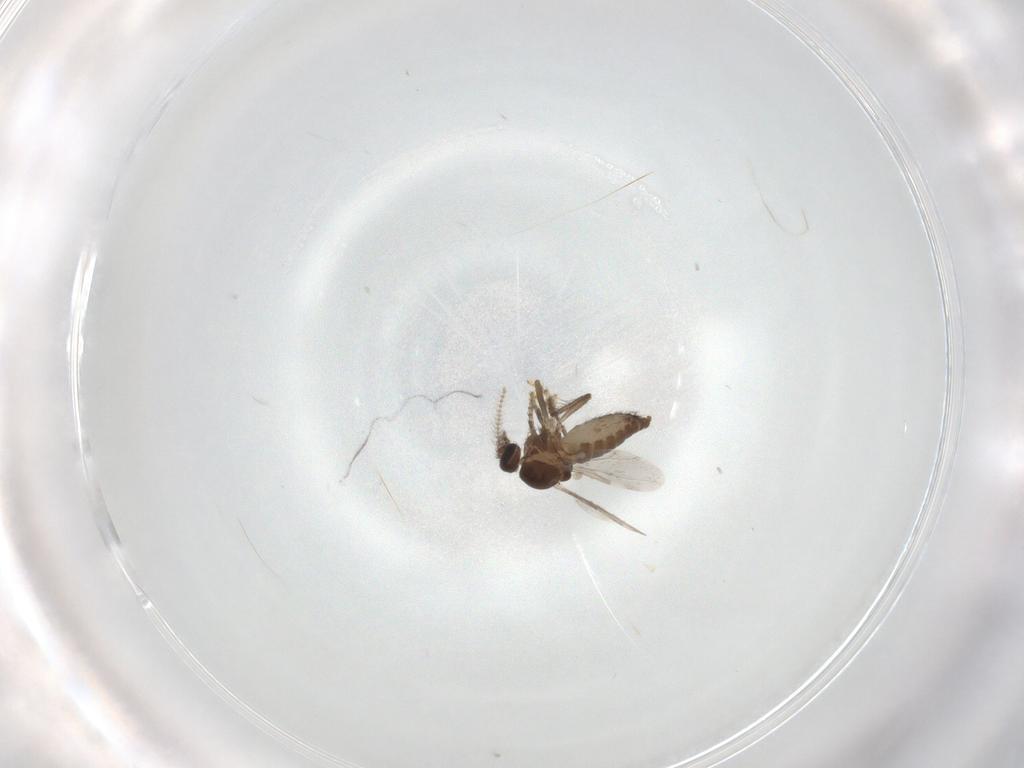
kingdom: Animalia
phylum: Arthropoda
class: Insecta
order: Diptera
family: Ceratopogonidae
